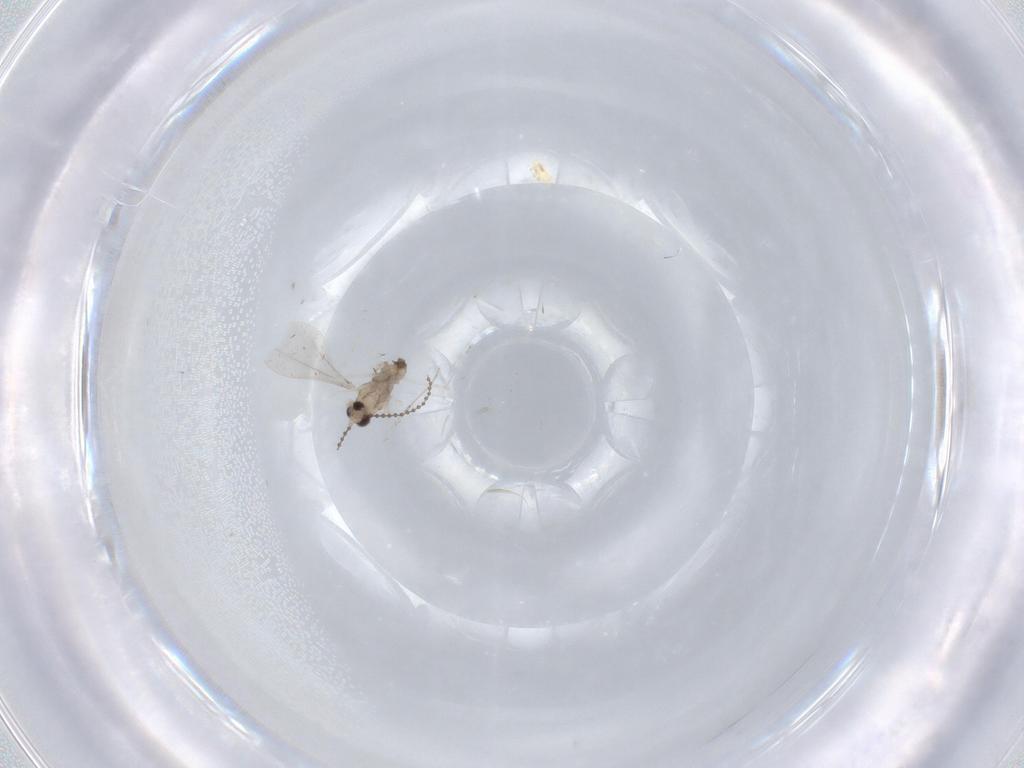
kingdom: Animalia
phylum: Arthropoda
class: Insecta
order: Diptera
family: Cecidomyiidae
